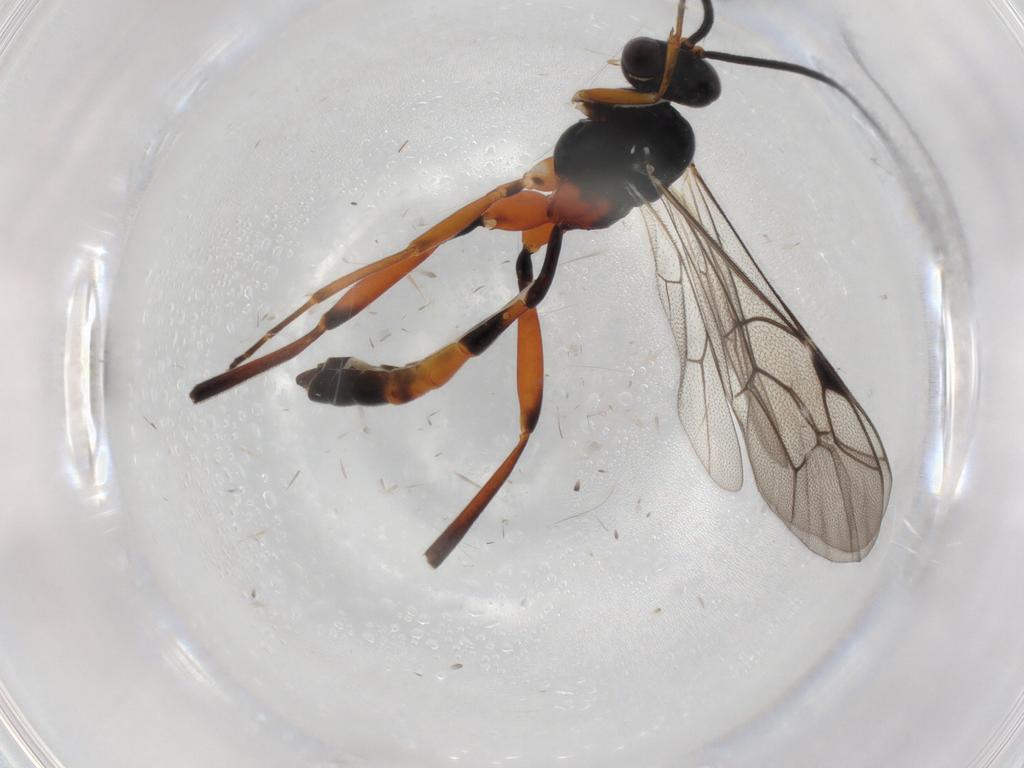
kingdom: Animalia
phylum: Arthropoda
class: Insecta
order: Hymenoptera
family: Ichneumonidae
